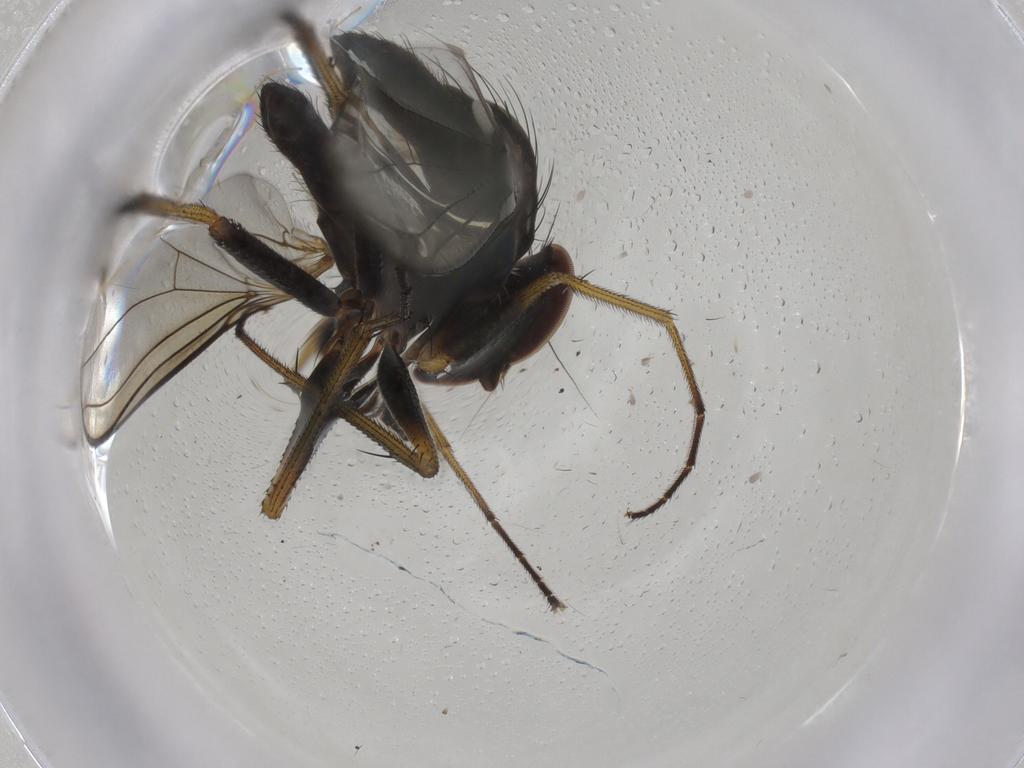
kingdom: Animalia
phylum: Arthropoda
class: Insecta
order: Diptera
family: Dolichopodidae
